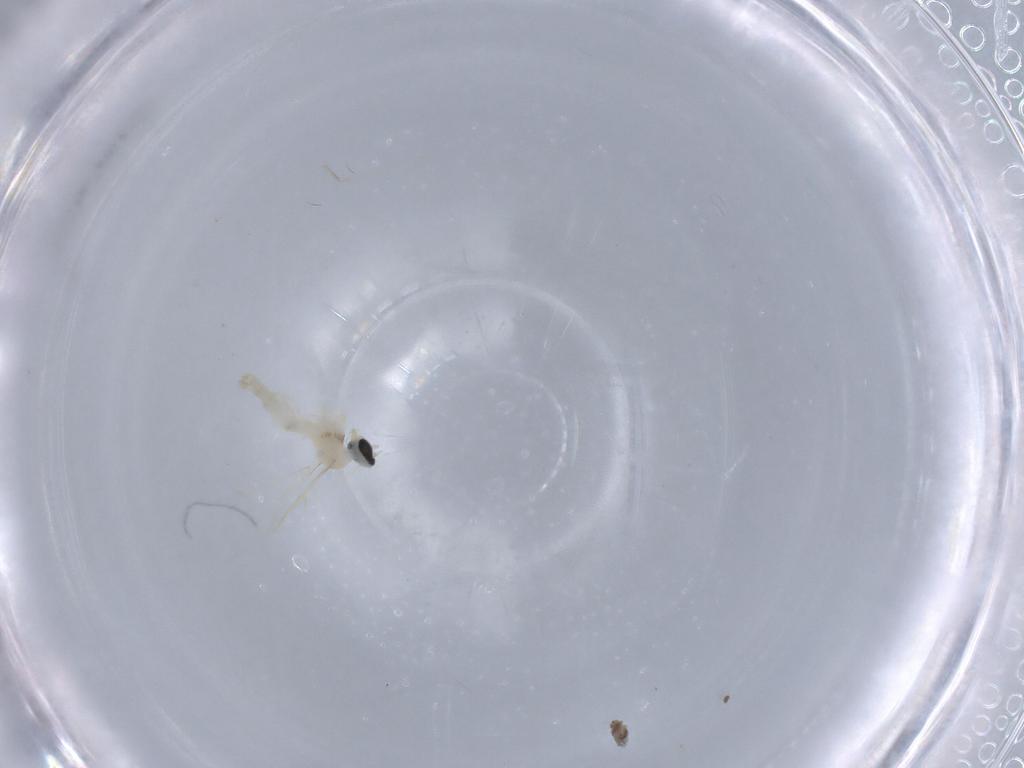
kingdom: Animalia
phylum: Arthropoda
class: Insecta
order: Diptera
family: Cecidomyiidae
